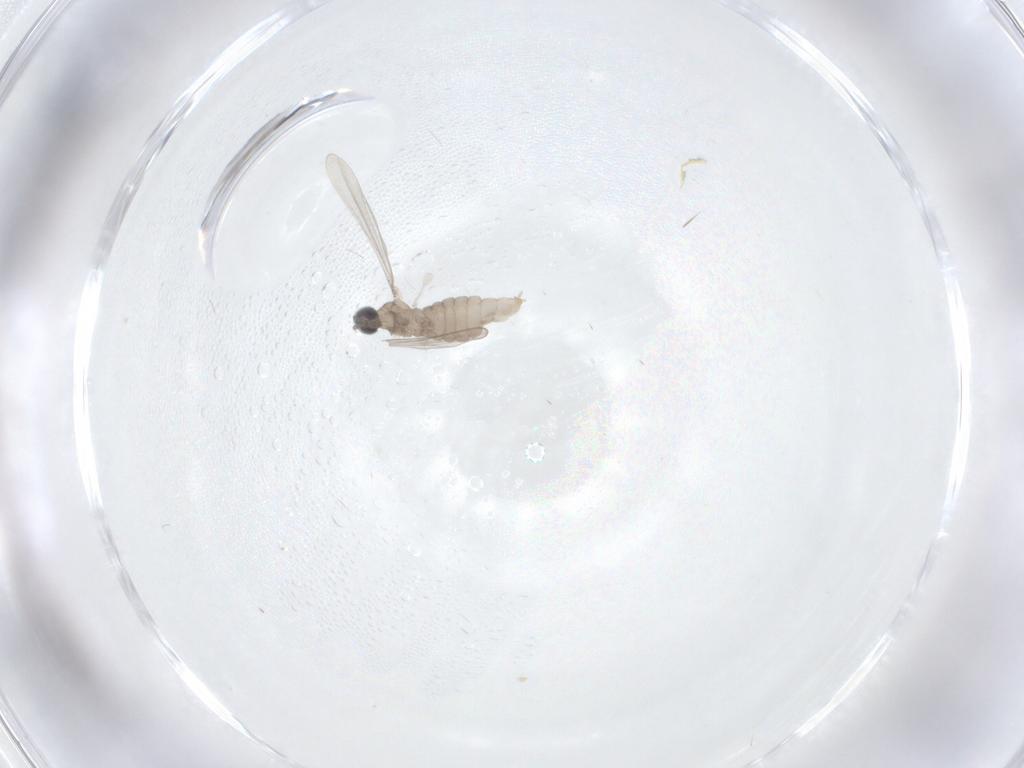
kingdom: Animalia
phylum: Arthropoda
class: Insecta
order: Diptera
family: Cecidomyiidae
